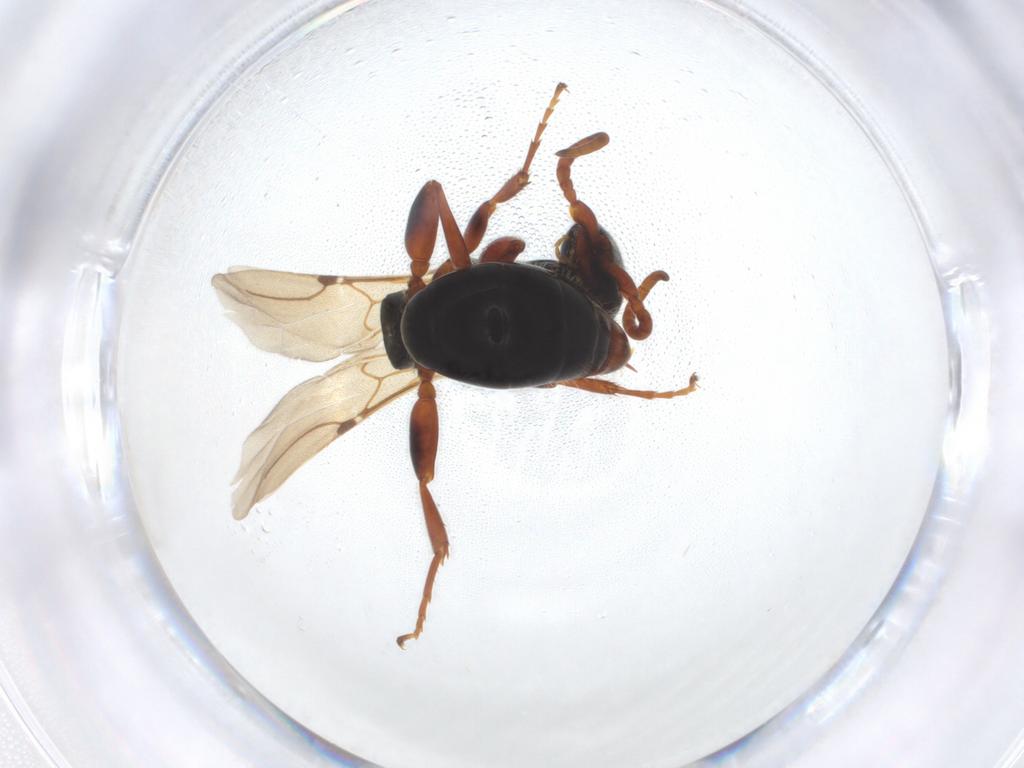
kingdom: Animalia
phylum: Arthropoda
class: Insecta
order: Hymenoptera
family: Bethylidae
